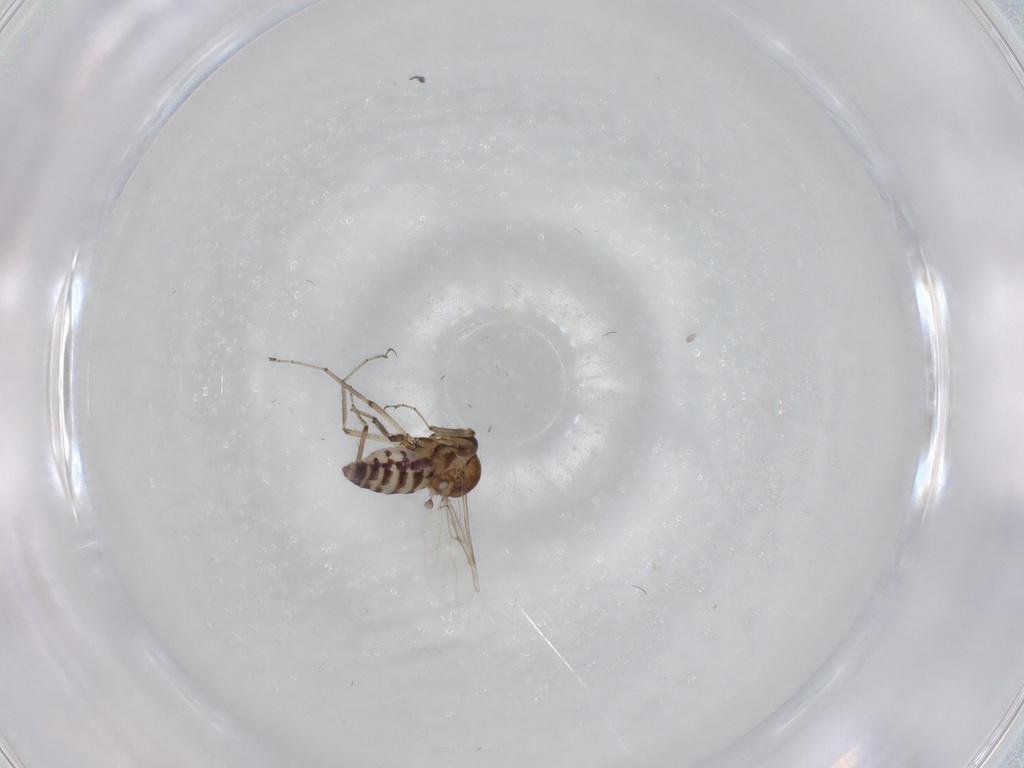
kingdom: Animalia
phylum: Arthropoda
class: Insecta
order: Diptera
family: Ceratopogonidae
